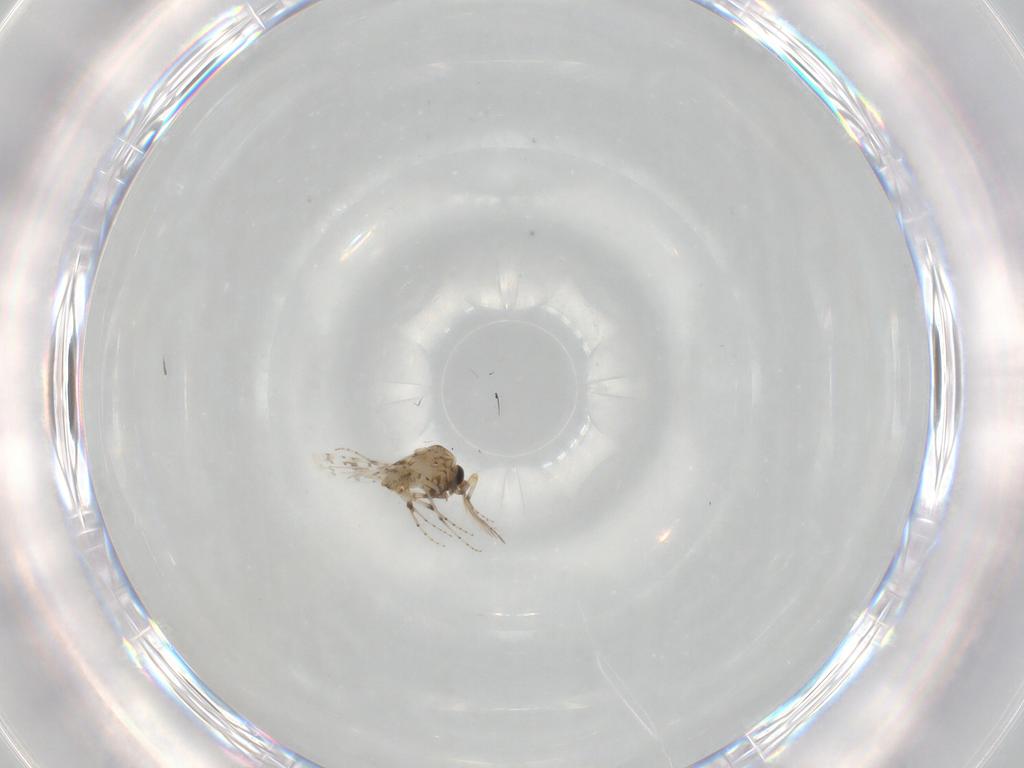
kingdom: Animalia
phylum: Arthropoda
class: Insecta
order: Diptera
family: Ceratopogonidae
